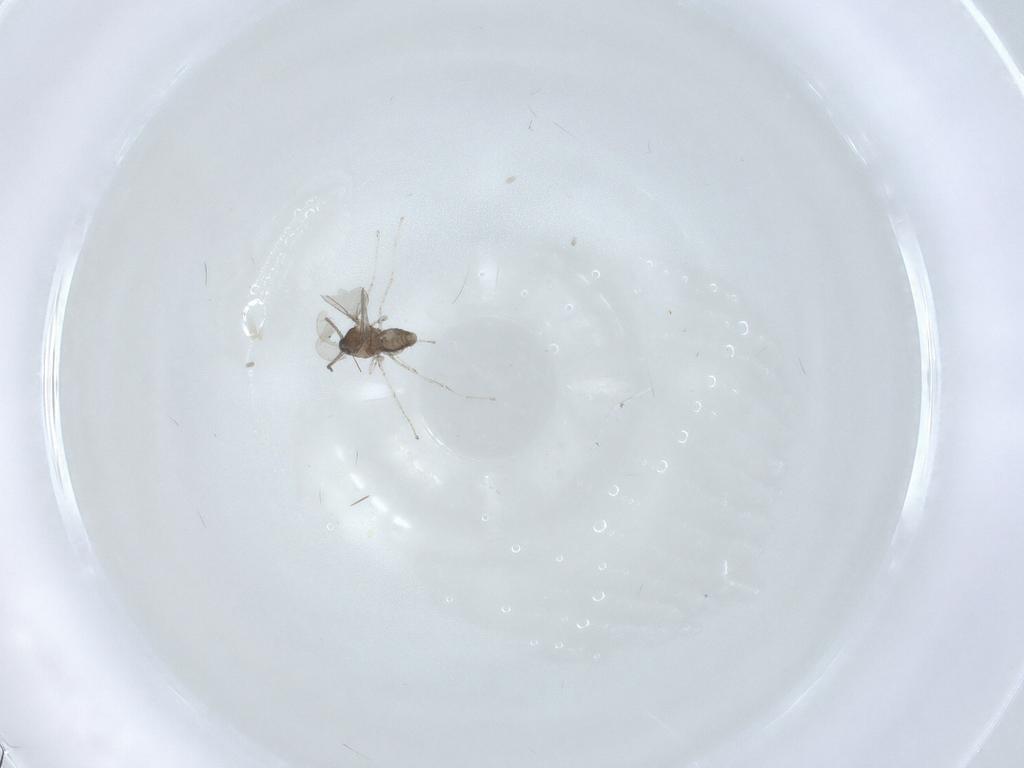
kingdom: Animalia
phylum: Arthropoda
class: Insecta
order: Diptera
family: Cecidomyiidae
